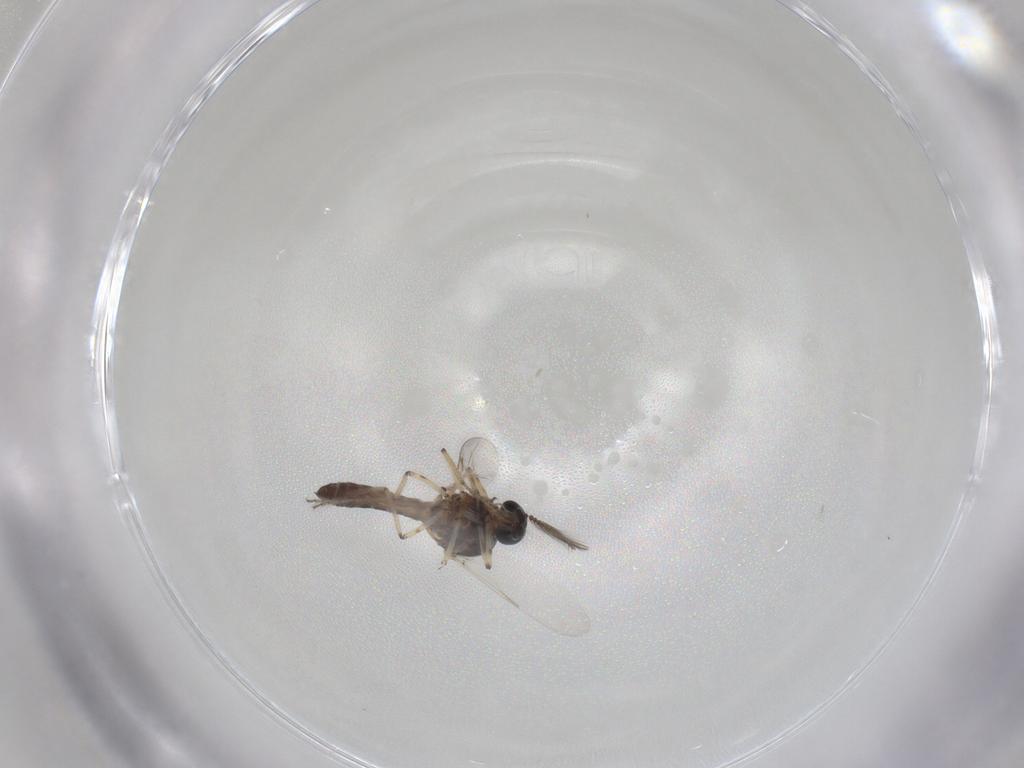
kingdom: Animalia
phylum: Arthropoda
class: Insecta
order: Diptera
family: Ceratopogonidae
